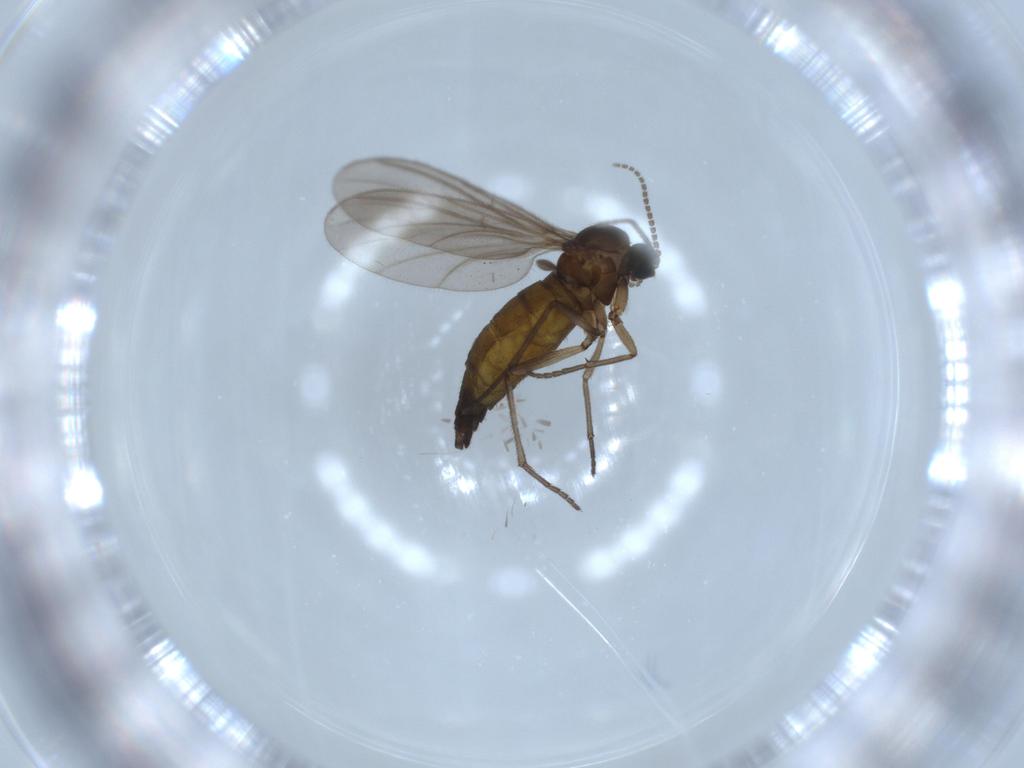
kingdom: Animalia
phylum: Arthropoda
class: Insecta
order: Diptera
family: Sciaridae
